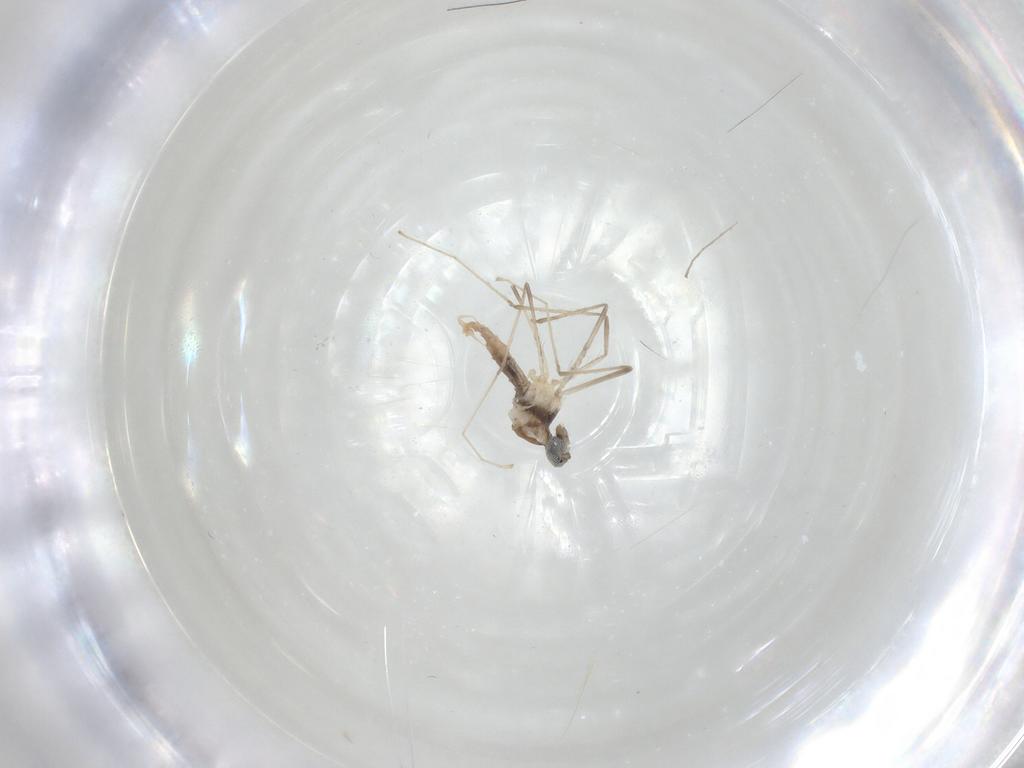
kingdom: Animalia
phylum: Arthropoda
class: Insecta
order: Diptera
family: Cecidomyiidae
